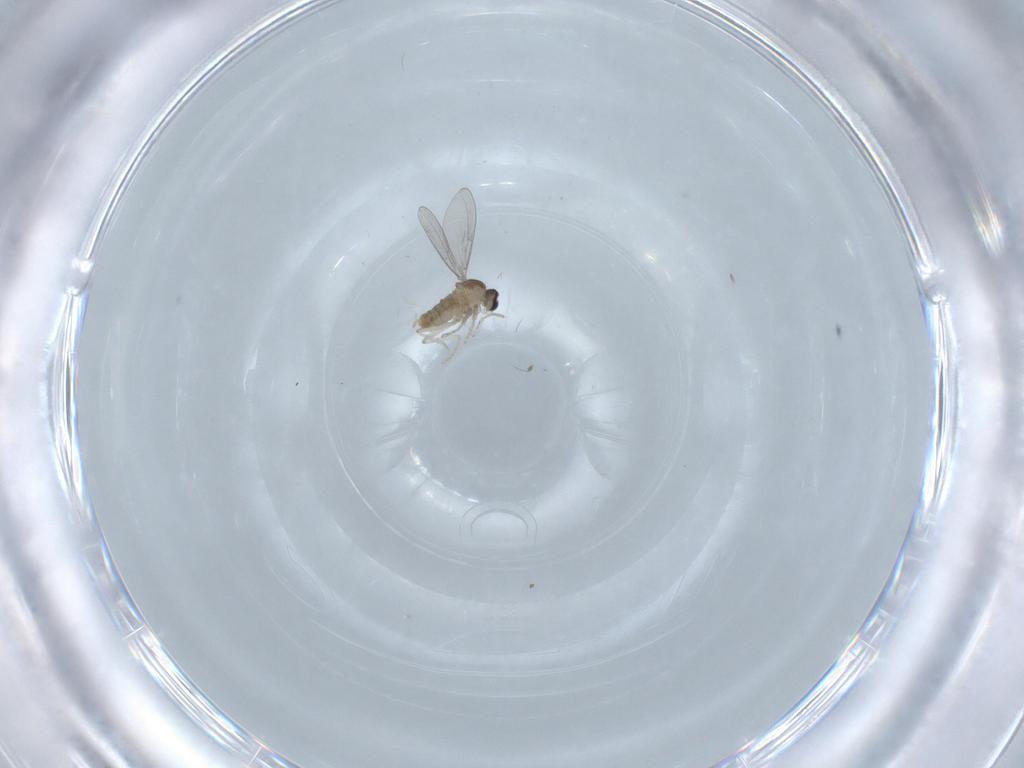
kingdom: Animalia
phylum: Arthropoda
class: Insecta
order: Diptera
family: Cecidomyiidae
